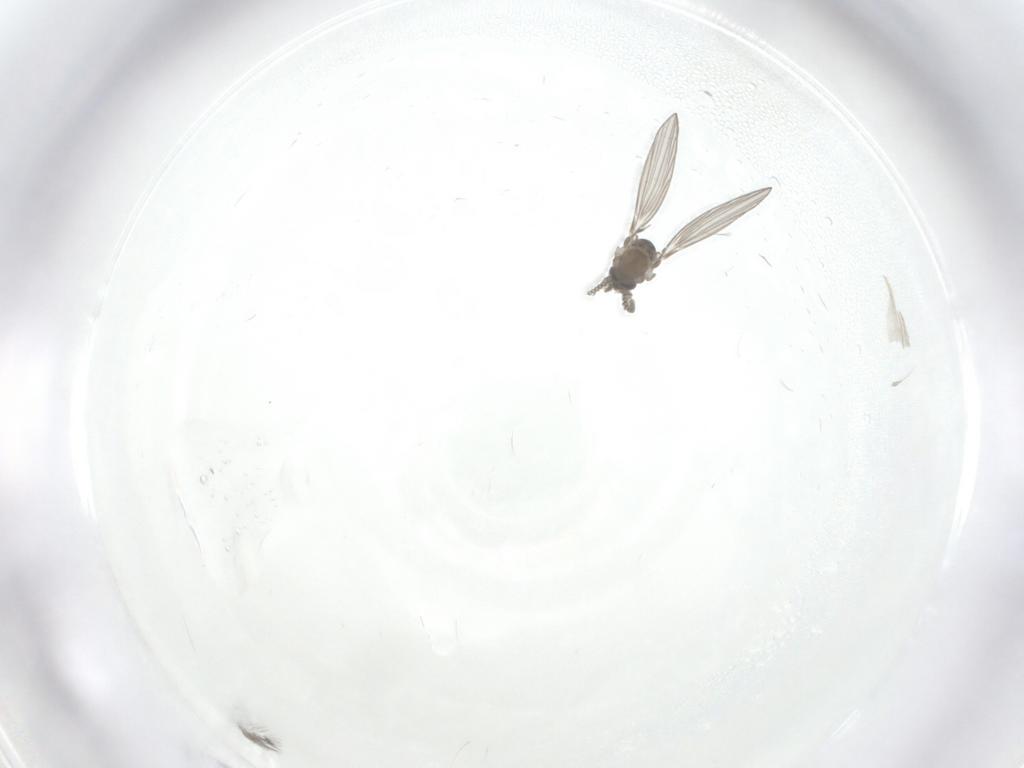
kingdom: Animalia
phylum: Arthropoda
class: Insecta
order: Diptera
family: Psychodidae
